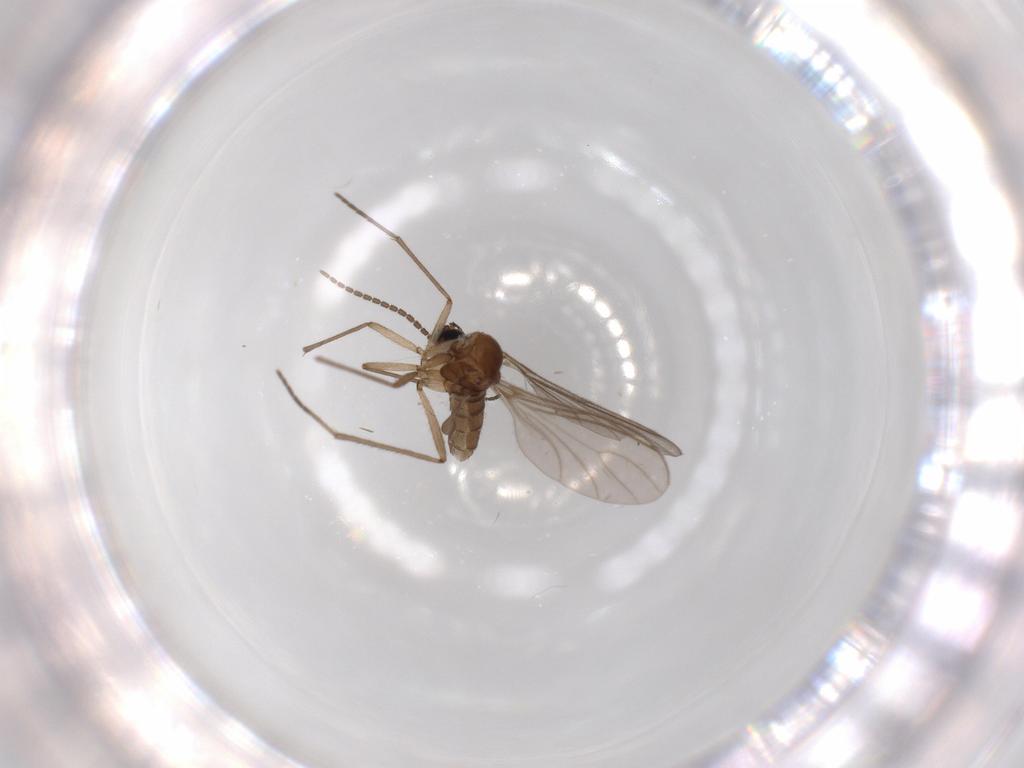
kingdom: Animalia
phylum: Arthropoda
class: Insecta
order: Diptera
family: Sciaridae
